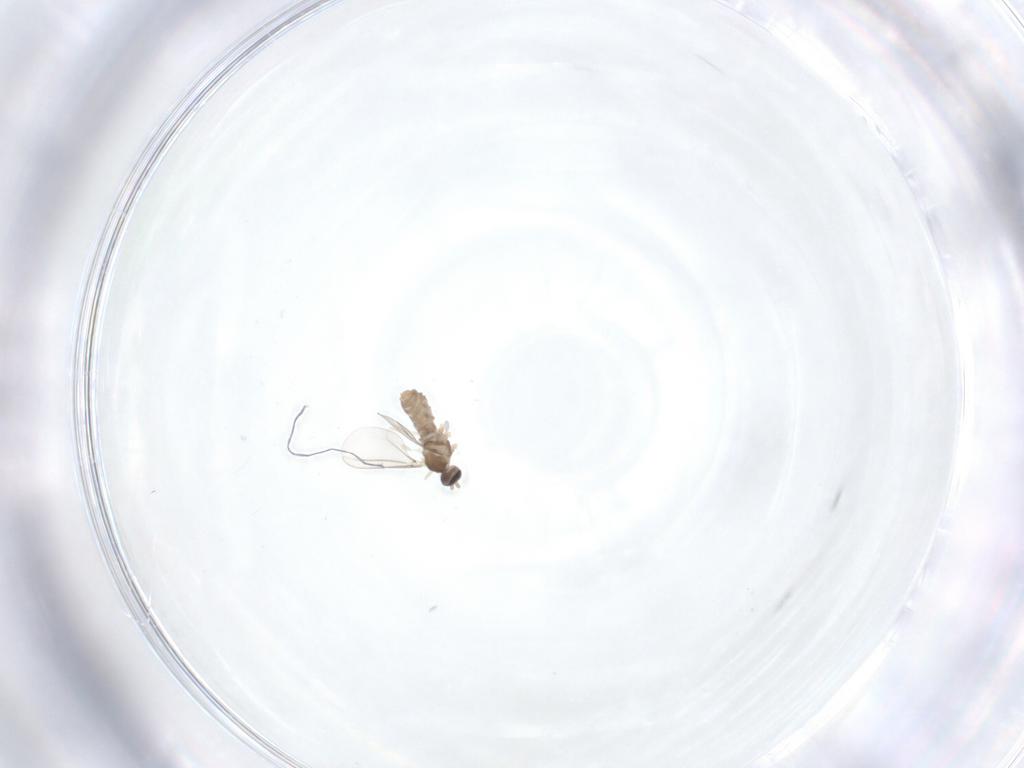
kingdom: Animalia
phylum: Arthropoda
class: Insecta
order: Diptera
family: Cecidomyiidae
